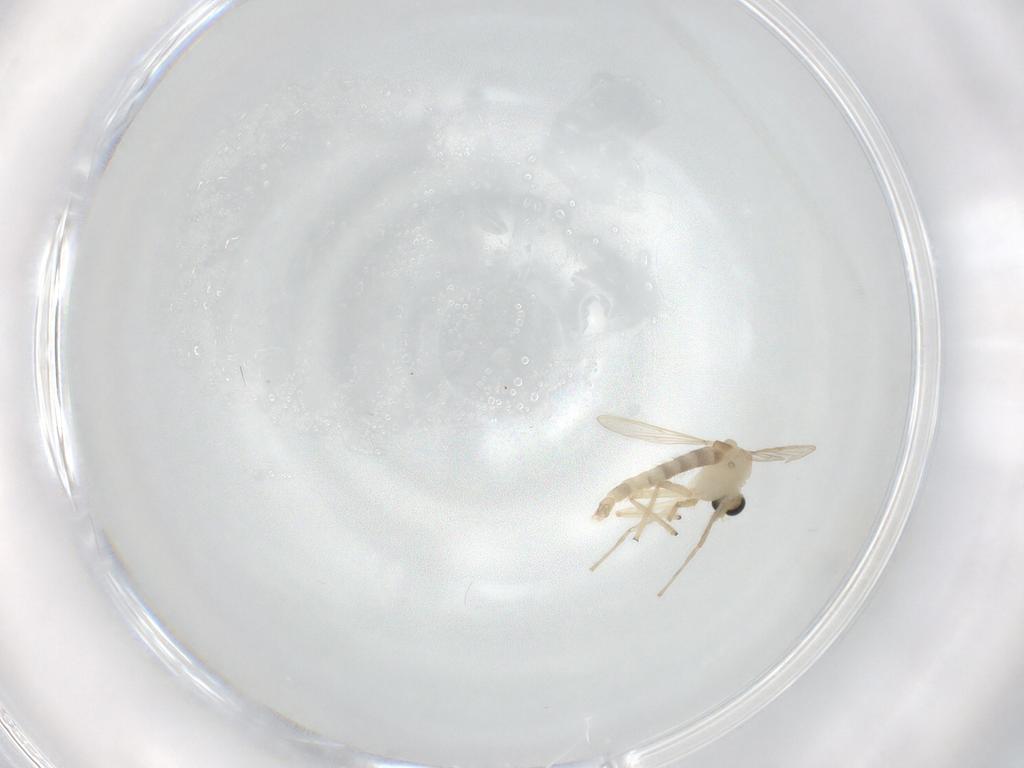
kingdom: Animalia
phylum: Arthropoda
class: Insecta
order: Diptera
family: Chironomidae
